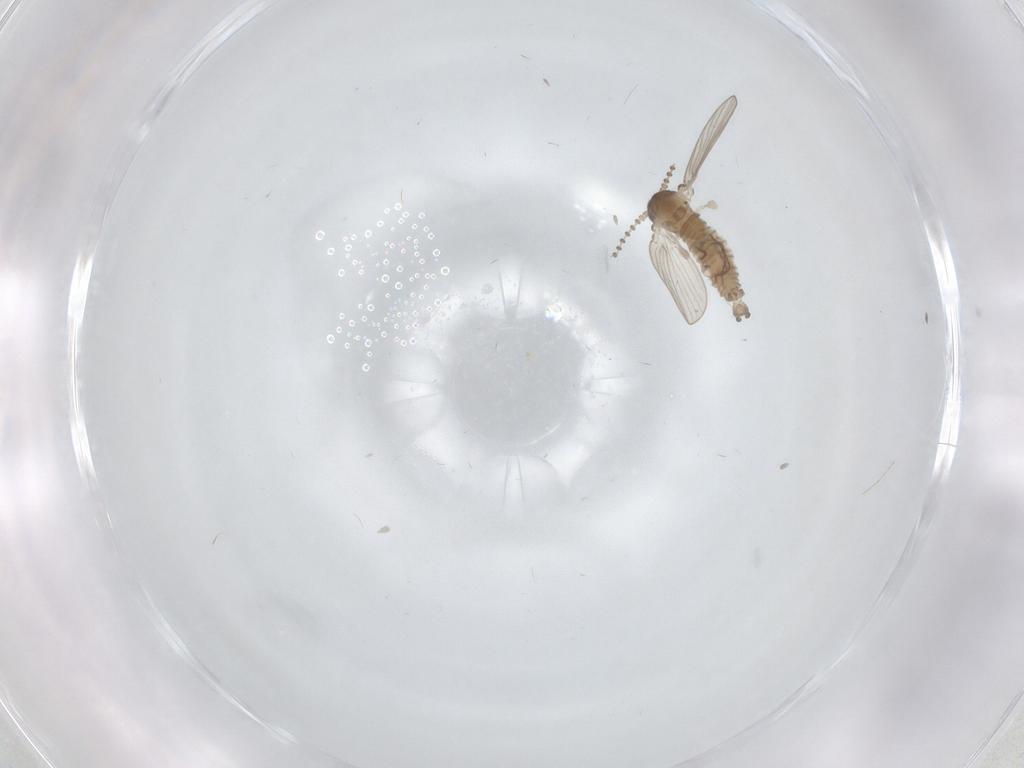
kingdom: Animalia
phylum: Arthropoda
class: Insecta
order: Diptera
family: Psychodidae
